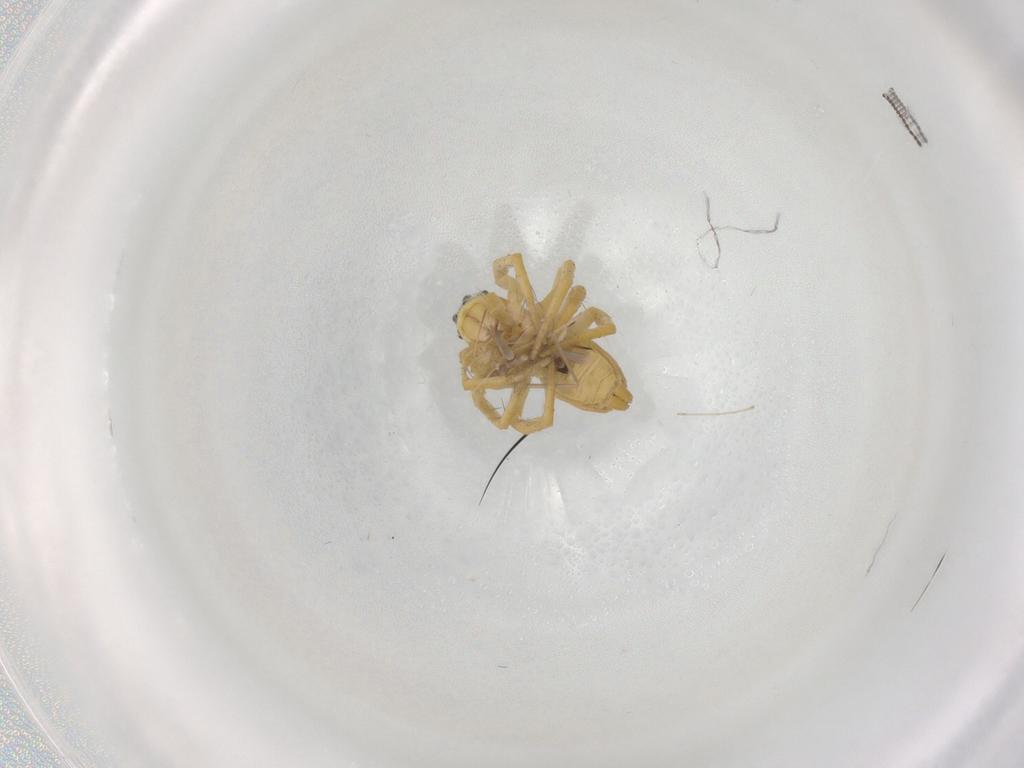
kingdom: Animalia
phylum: Arthropoda
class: Arachnida
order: Araneae
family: Oxyopidae
